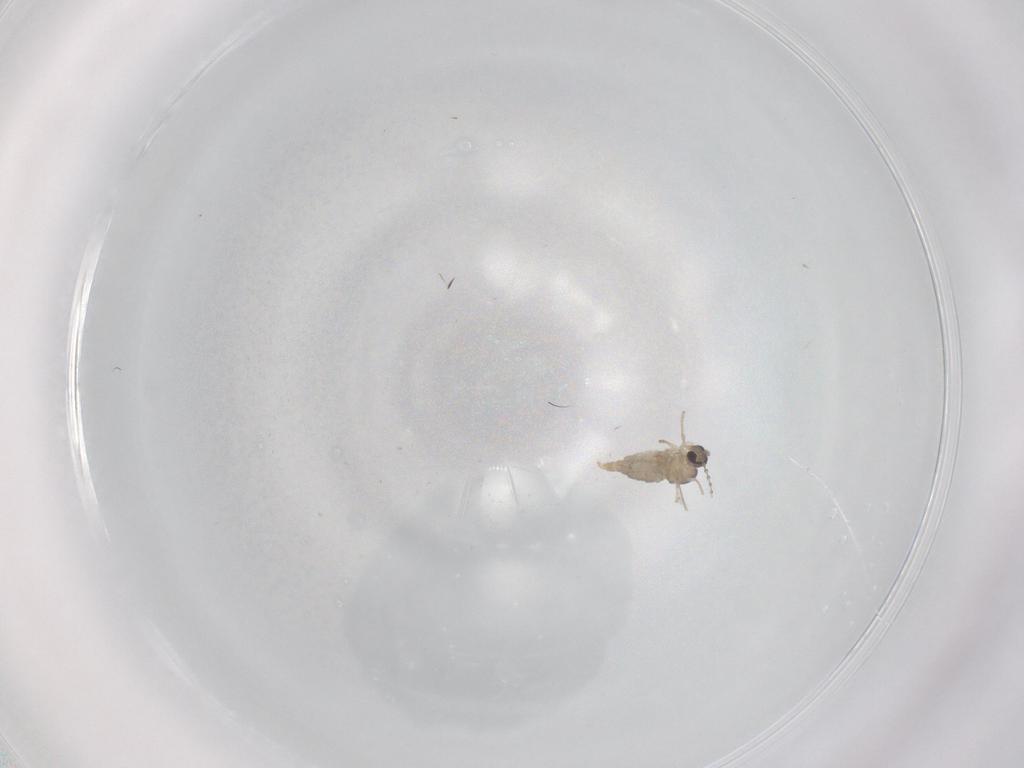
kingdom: Animalia
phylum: Arthropoda
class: Insecta
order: Diptera
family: Cecidomyiidae
